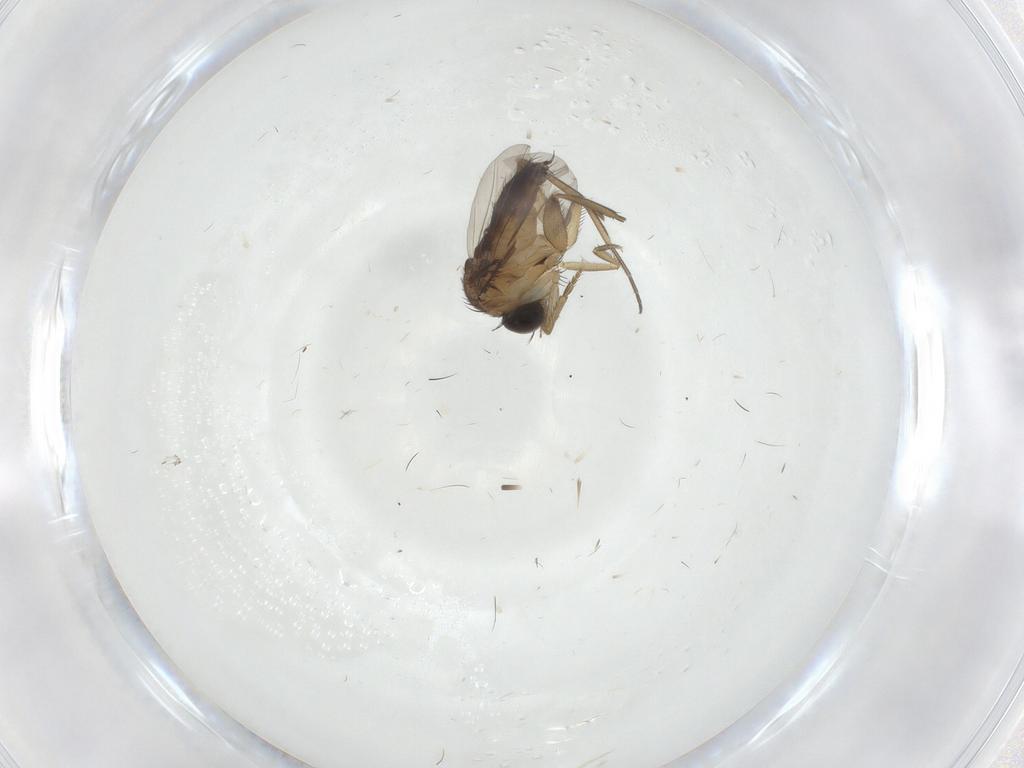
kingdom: Animalia
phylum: Arthropoda
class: Insecta
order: Diptera
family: Phoridae
